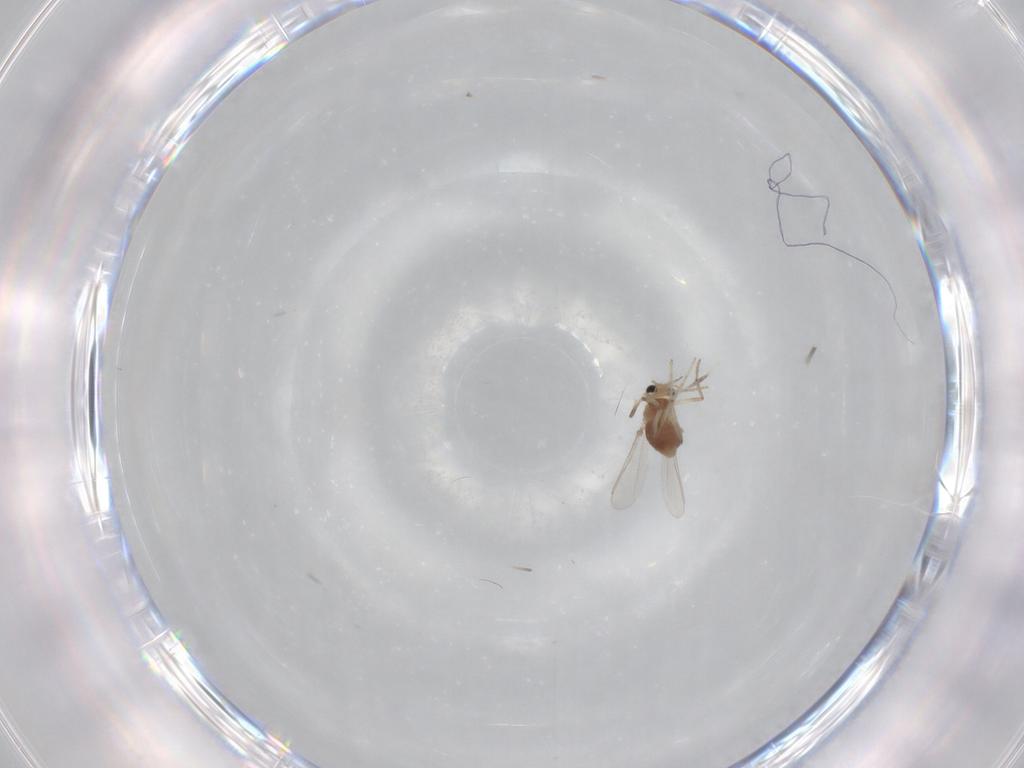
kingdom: Animalia
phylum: Arthropoda
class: Insecta
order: Diptera
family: Chironomidae
